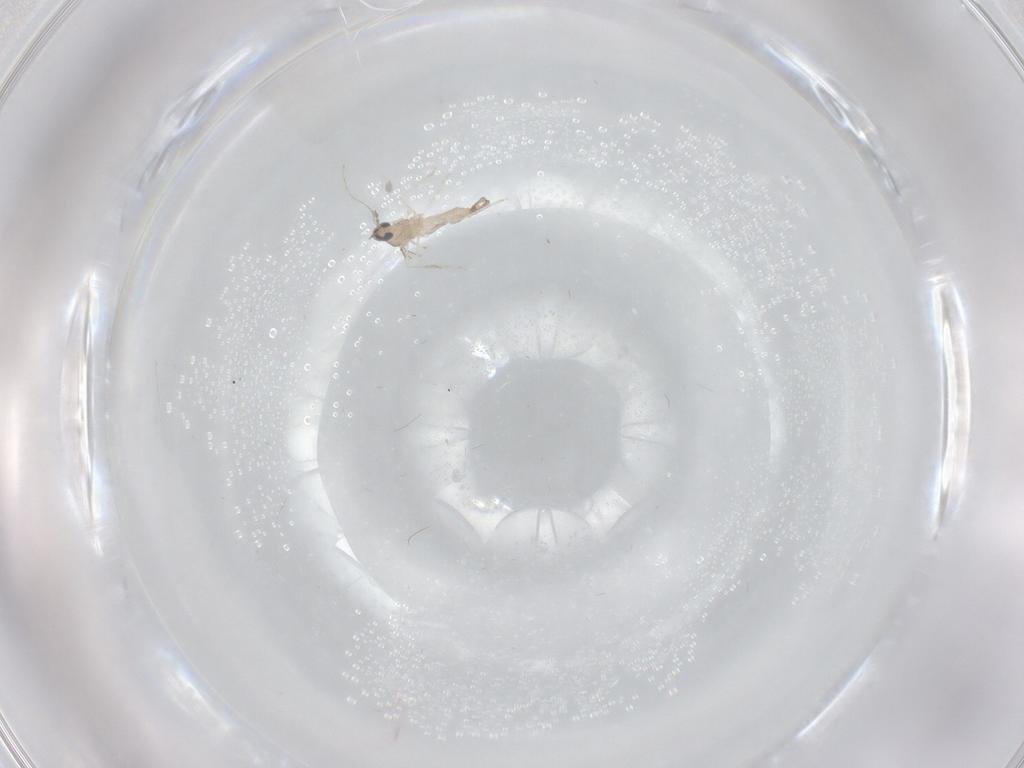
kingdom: Animalia
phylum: Arthropoda
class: Insecta
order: Diptera
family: Cecidomyiidae
